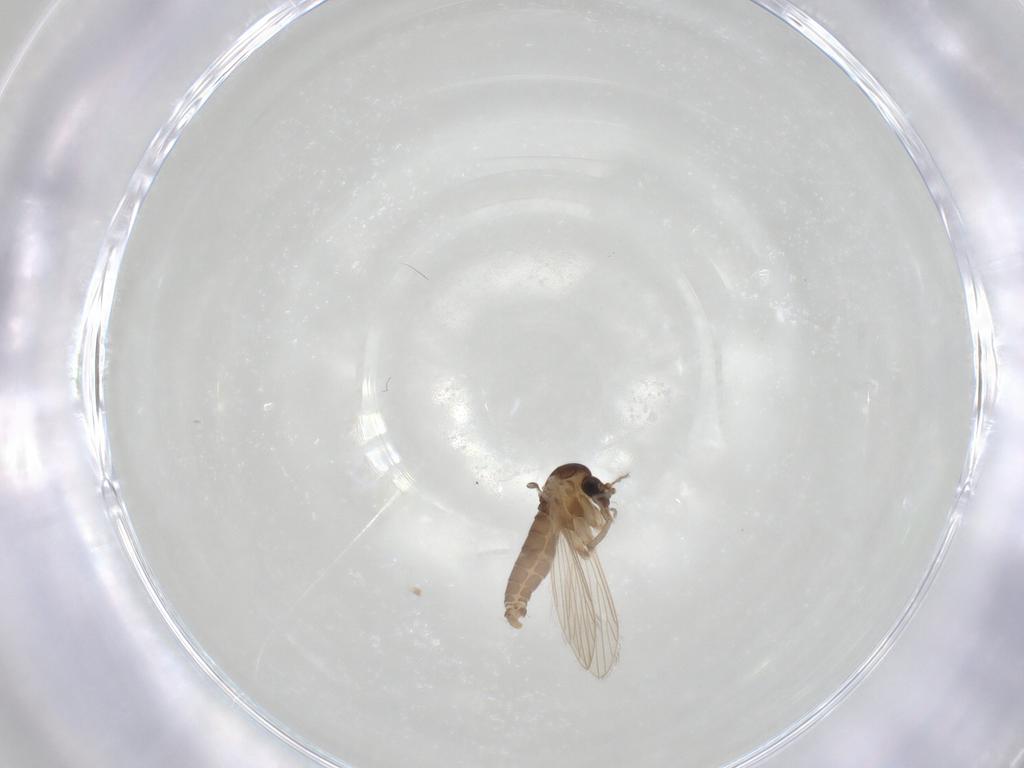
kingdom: Animalia
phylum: Arthropoda
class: Insecta
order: Diptera
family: Psychodidae
